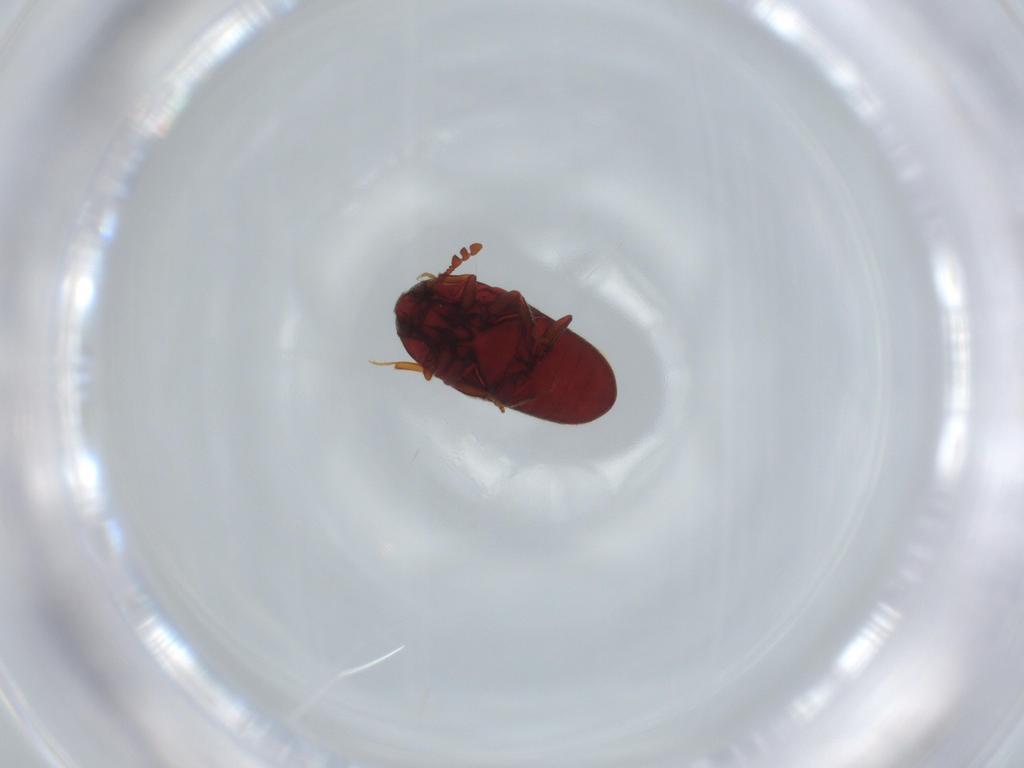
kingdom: Animalia
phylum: Arthropoda
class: Insecta
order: Coleoptera
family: Throscidae
